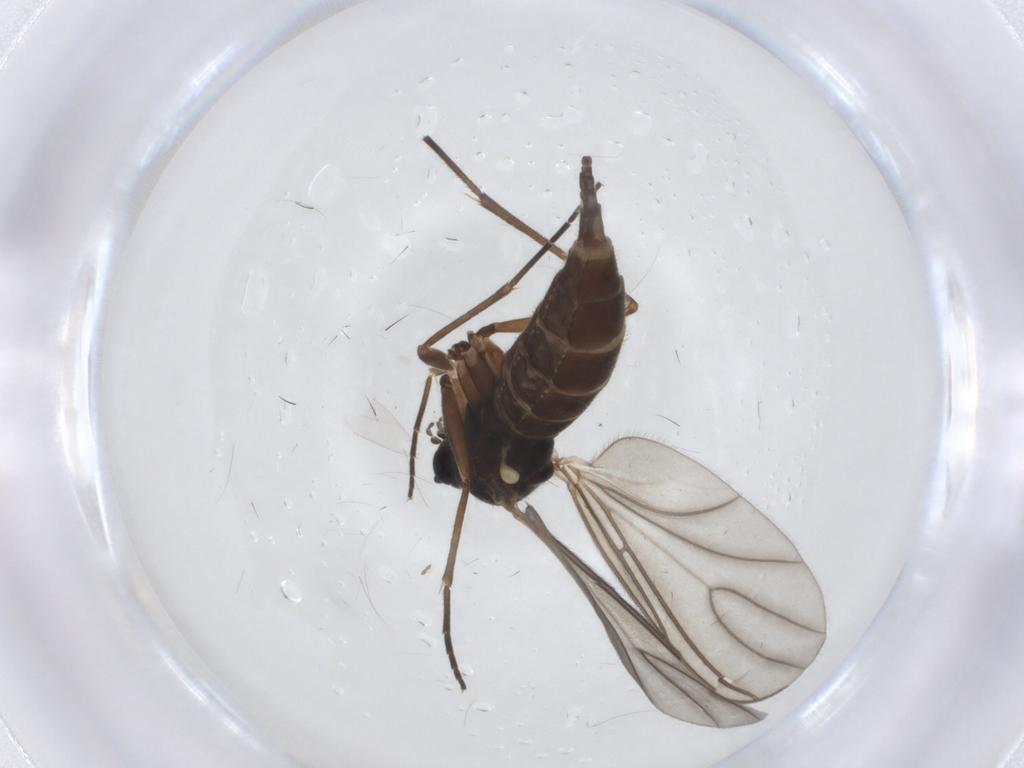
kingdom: Animalia
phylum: Arthropoda
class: Insecta
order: Diptera
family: Sciaridae
